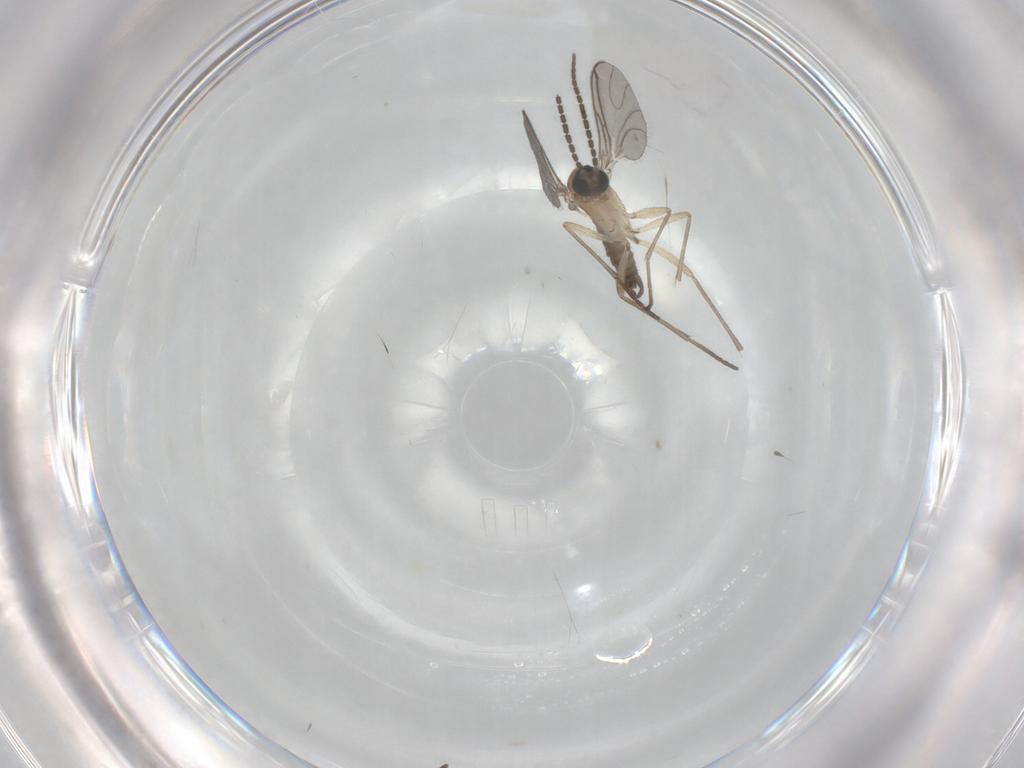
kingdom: Animalia
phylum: Arthropoda
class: Insecta
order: Diptera
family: Sciaridae
